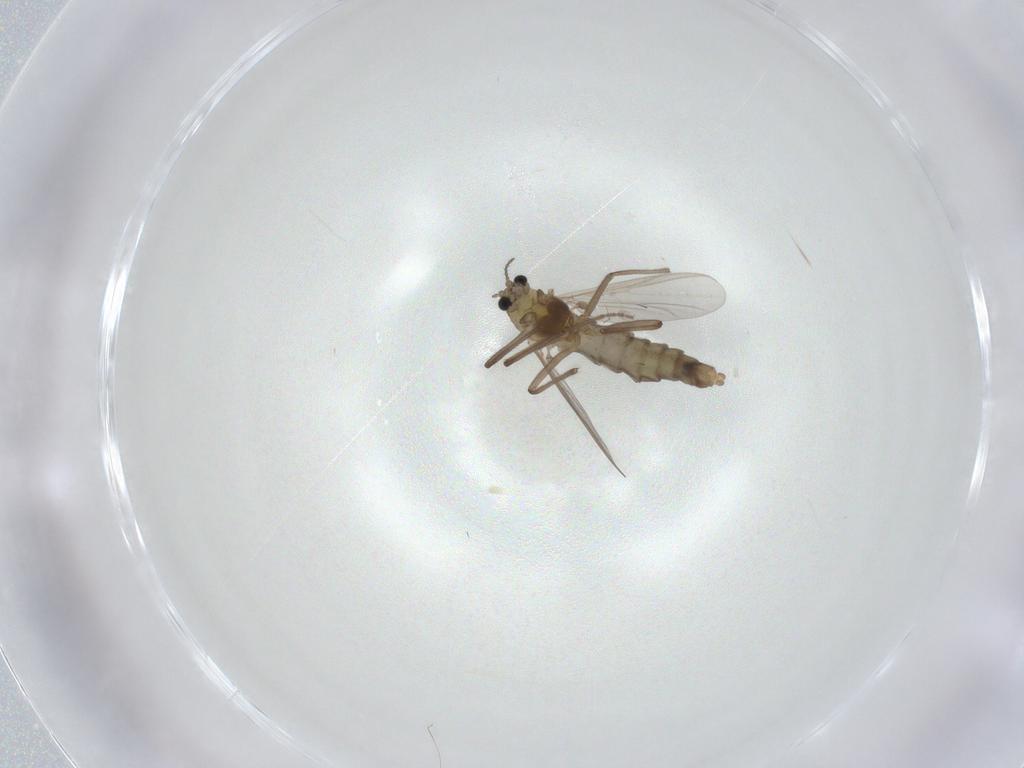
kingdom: Animalia
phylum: Arthropoda
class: Insecta
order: Diptera
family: Chironomidae
